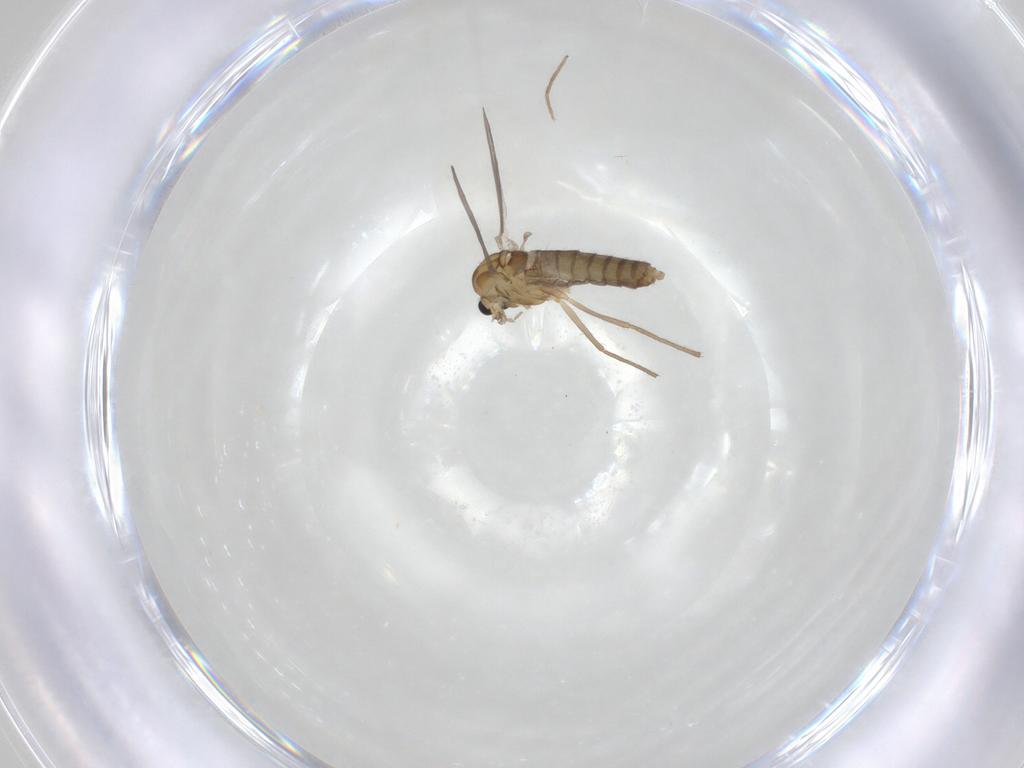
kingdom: Animalia
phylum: Arthropoda
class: Insecta
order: Diptera
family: Chironomidae
